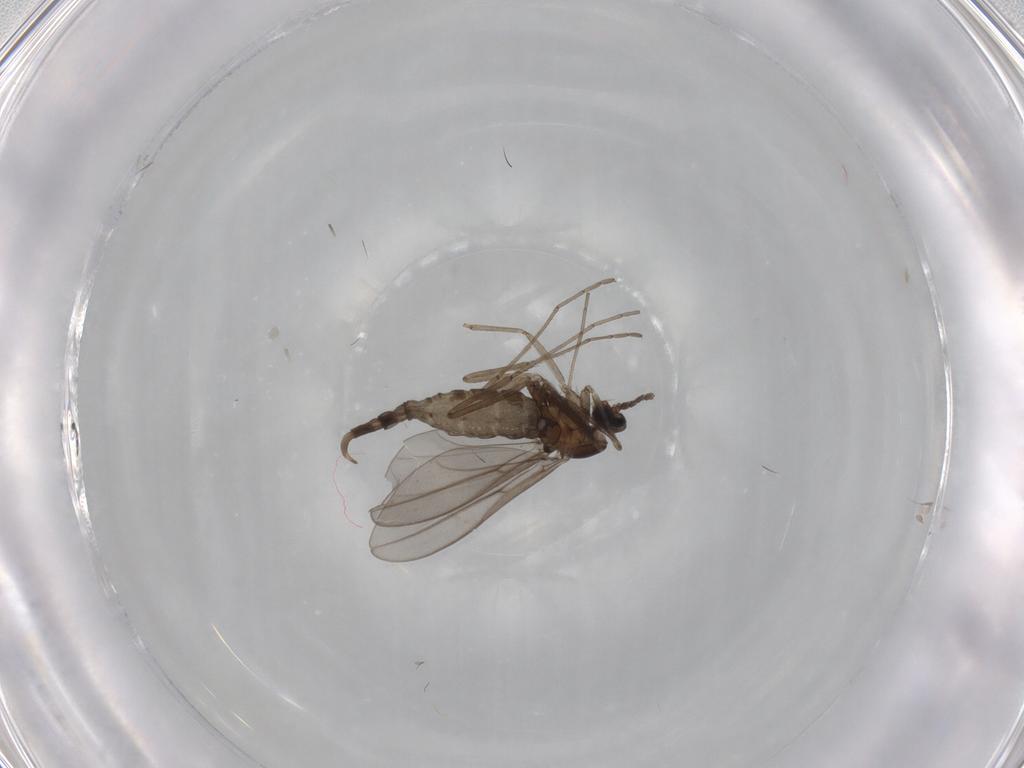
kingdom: Animalia
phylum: Arthropoda
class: Insecta
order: Diptera
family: Cecidomyiidae
